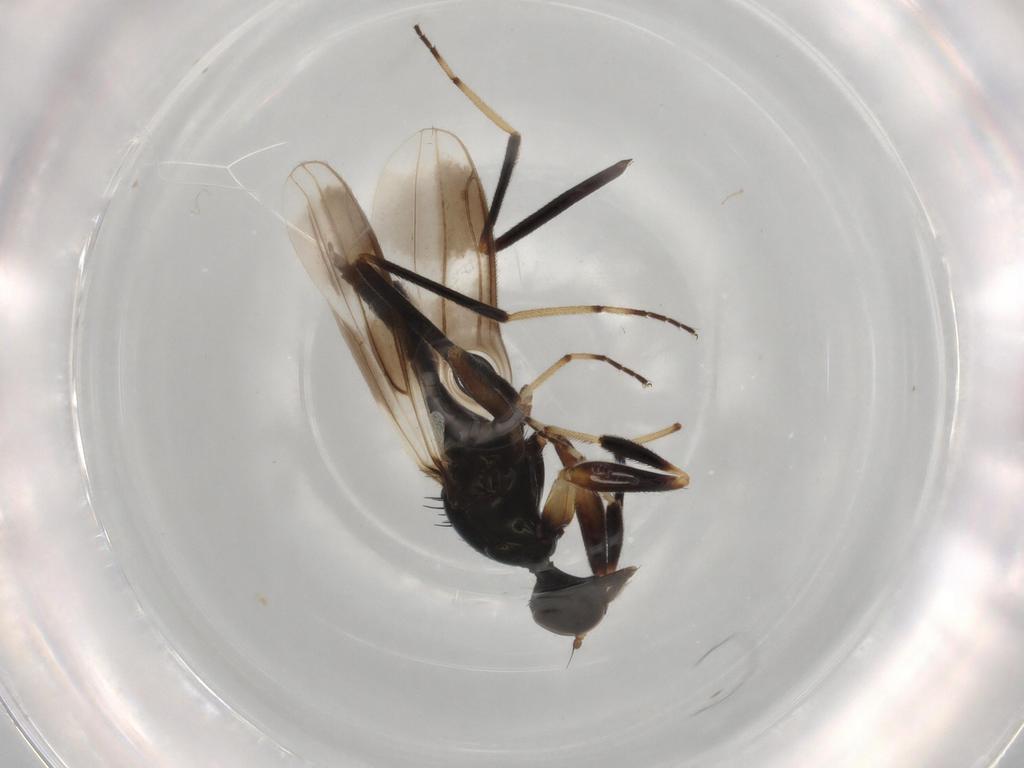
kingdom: Animalia
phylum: Arthropoda
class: Insecta
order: Diptera
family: Hybotidae
